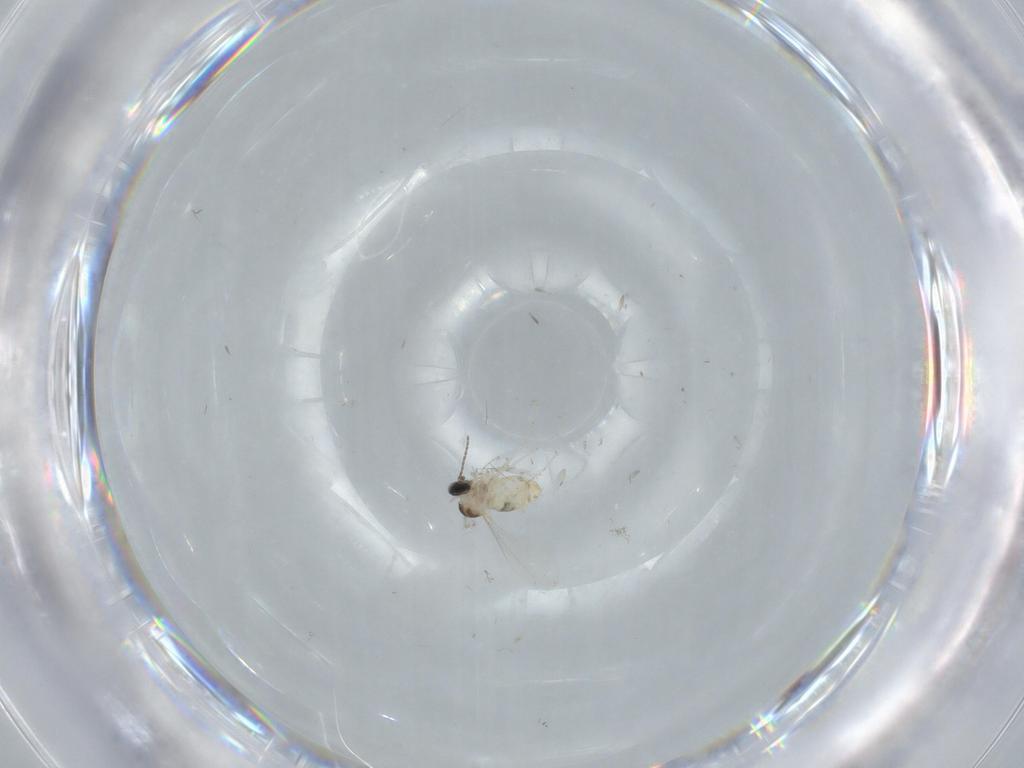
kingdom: Animalia
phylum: Arthropoda
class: Insecta
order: Diptera
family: Cecidomyiidae
